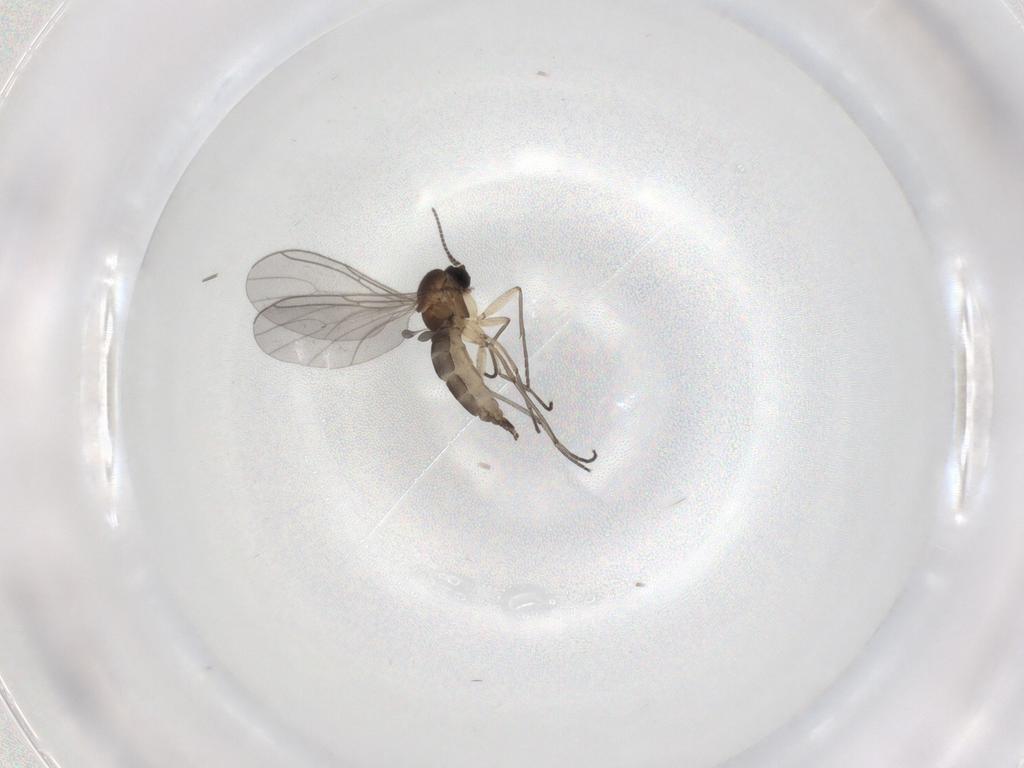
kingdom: Animalia
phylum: Arthropoda
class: Insecta
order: Diptera
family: Sciaridae
